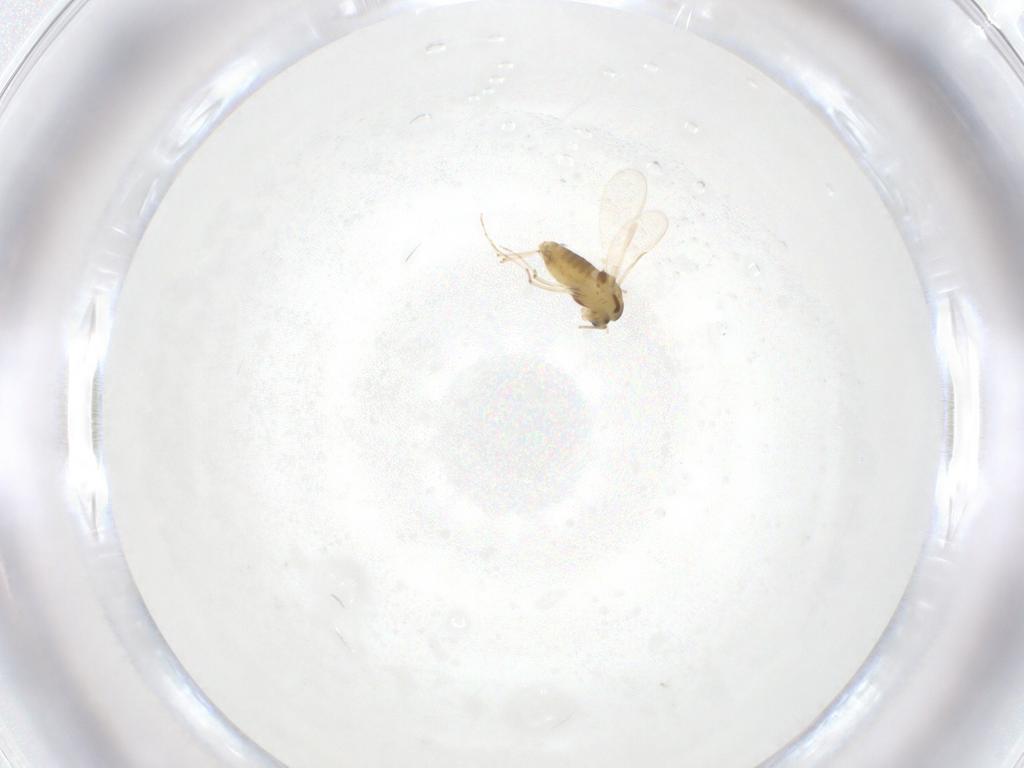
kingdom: Animalia
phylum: Arthropoda
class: Insecta
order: Diptera
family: Chironomidae
